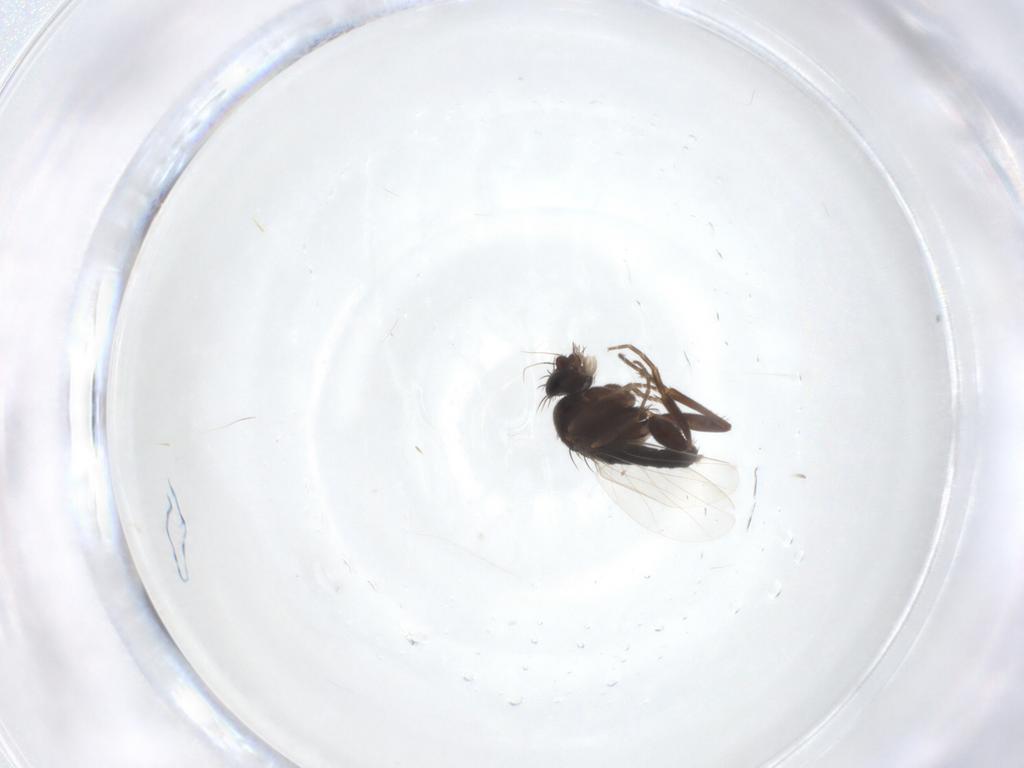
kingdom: Animalia
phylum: Arthropoda
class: Insecta
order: Diptera
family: Phoridae
